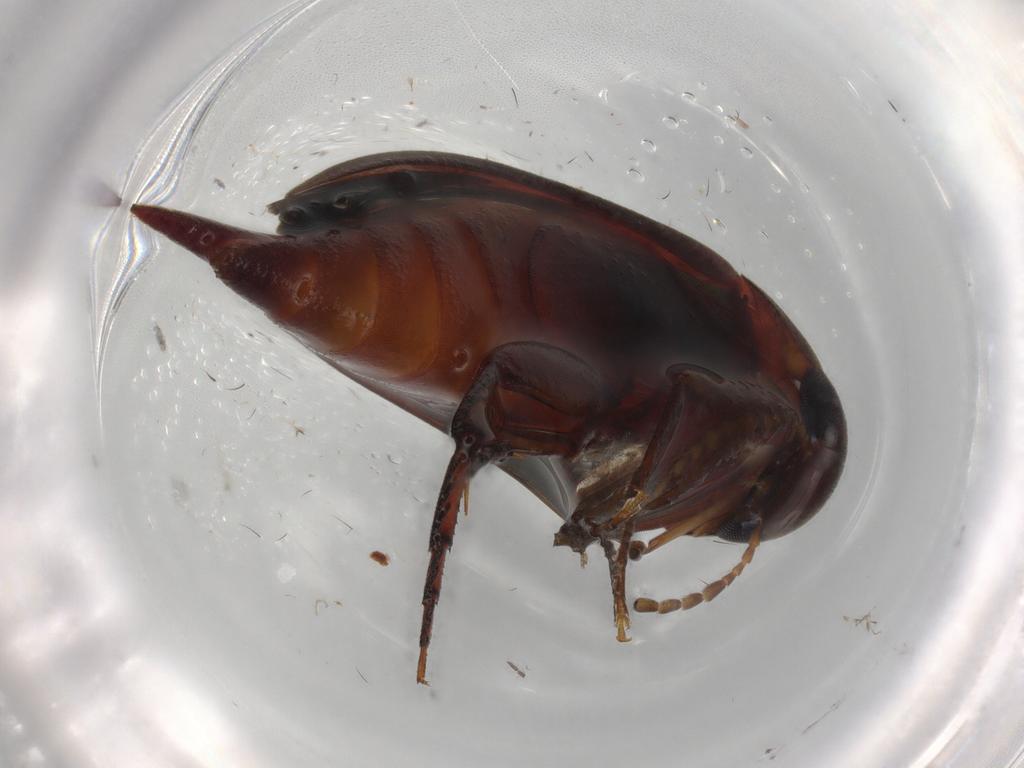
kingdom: Animalia
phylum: Arthropoda
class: Insecta
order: Coleoptera
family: Mordellidae
